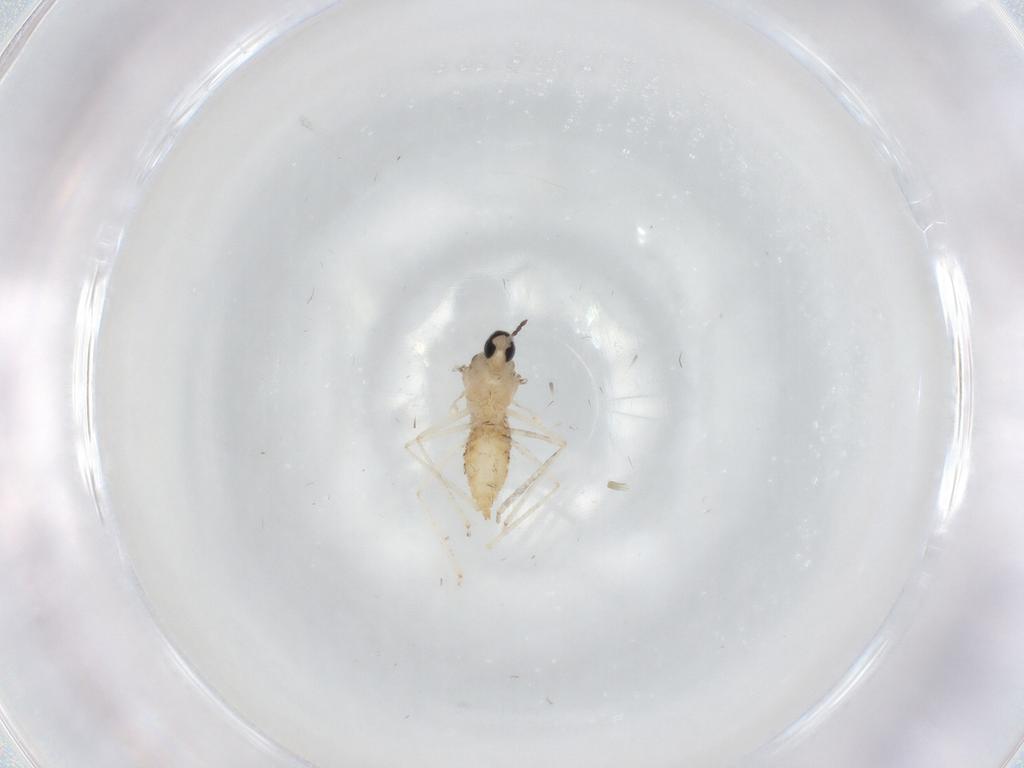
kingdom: Animalia
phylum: Arthropoda
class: Insecta
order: Diptera
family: Cecidomyiidae
